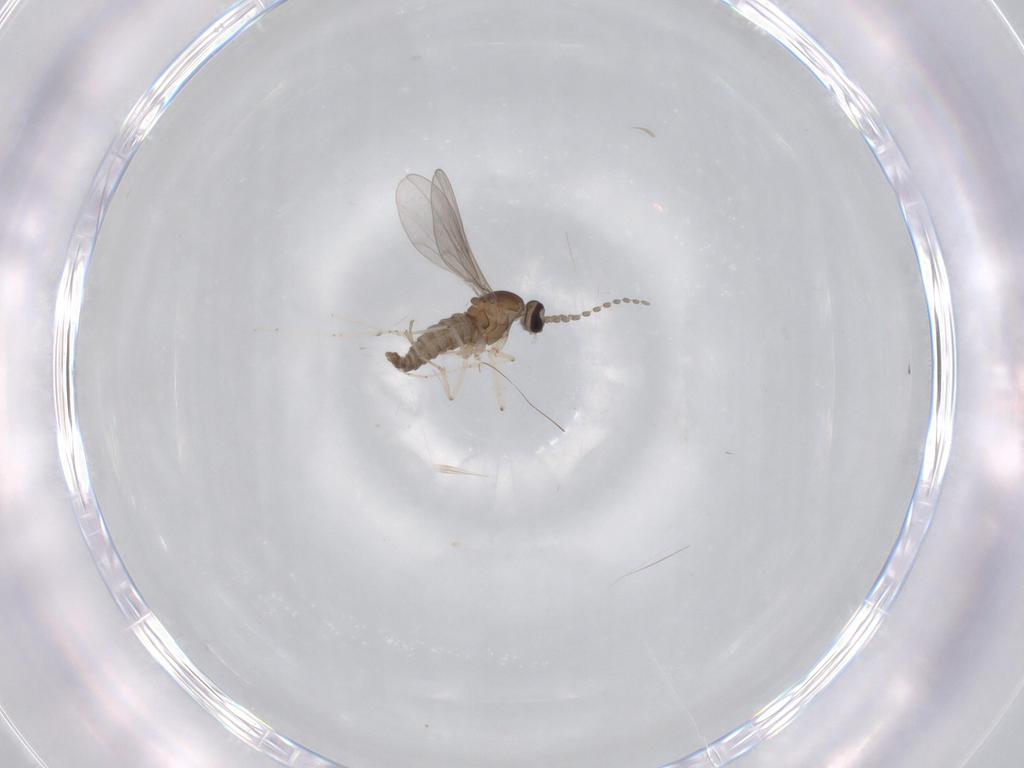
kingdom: Animalia
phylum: Arthropoda
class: Insecta
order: Diptera
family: Cecidomyiidae
